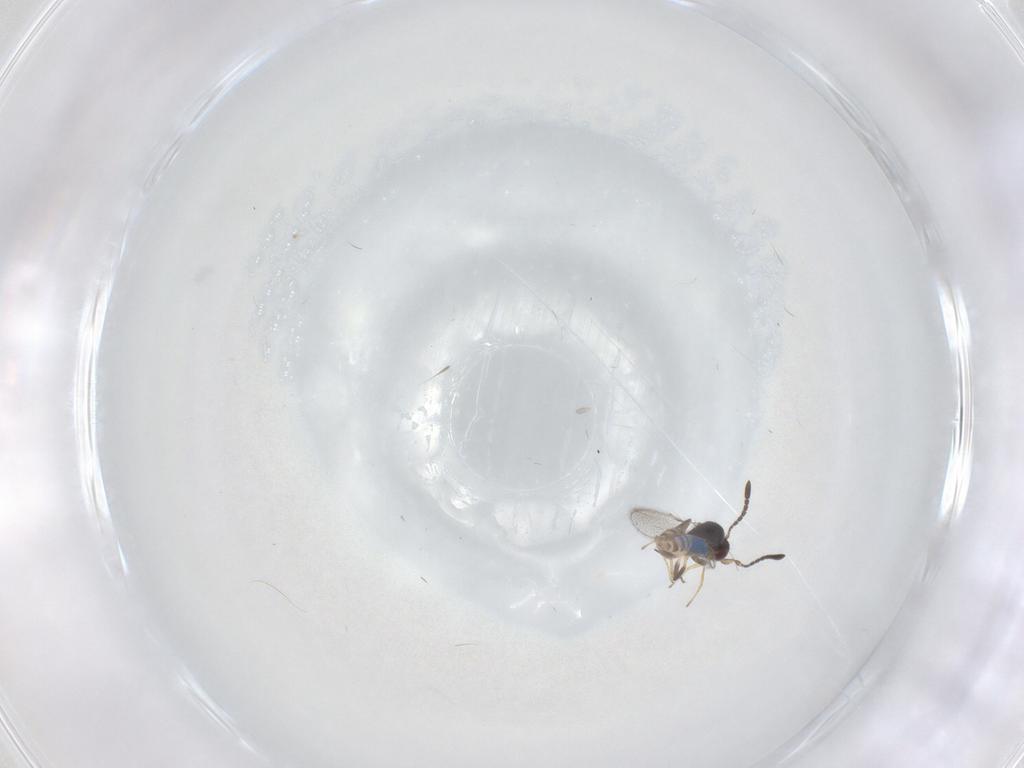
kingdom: Animalia
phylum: Arthropoda
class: Insecta
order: Hymenoptera
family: Mymaridae
